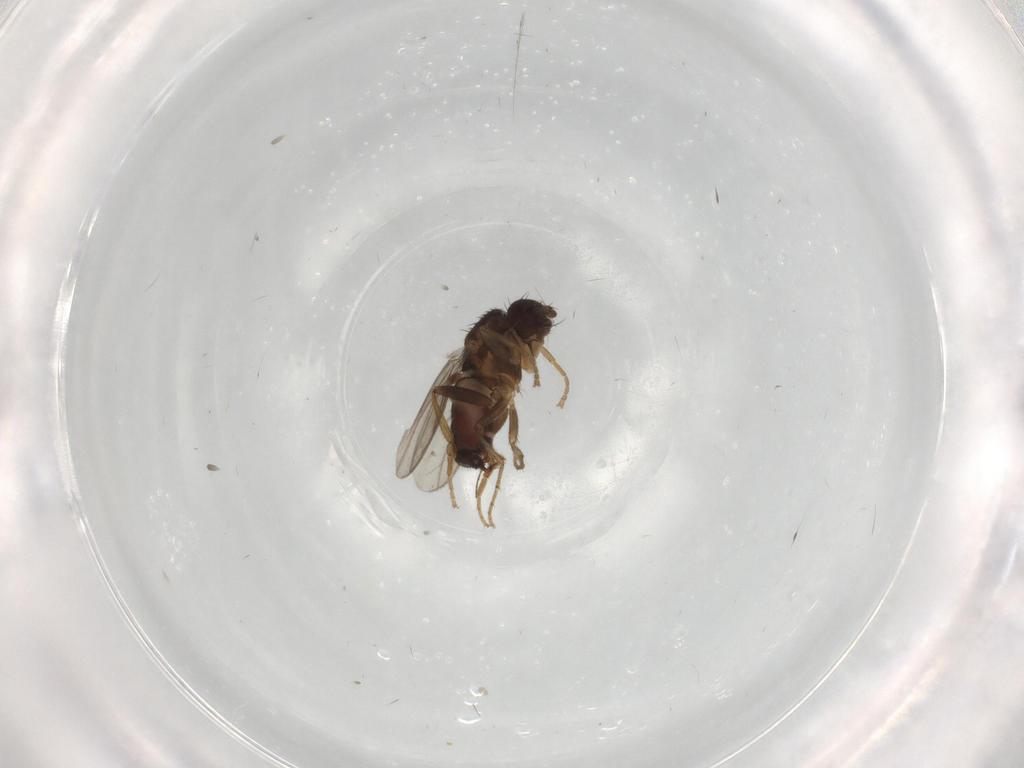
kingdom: Animalia
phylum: Arthropoda
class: Insecta
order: Diptera
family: Sphaeroceridae
